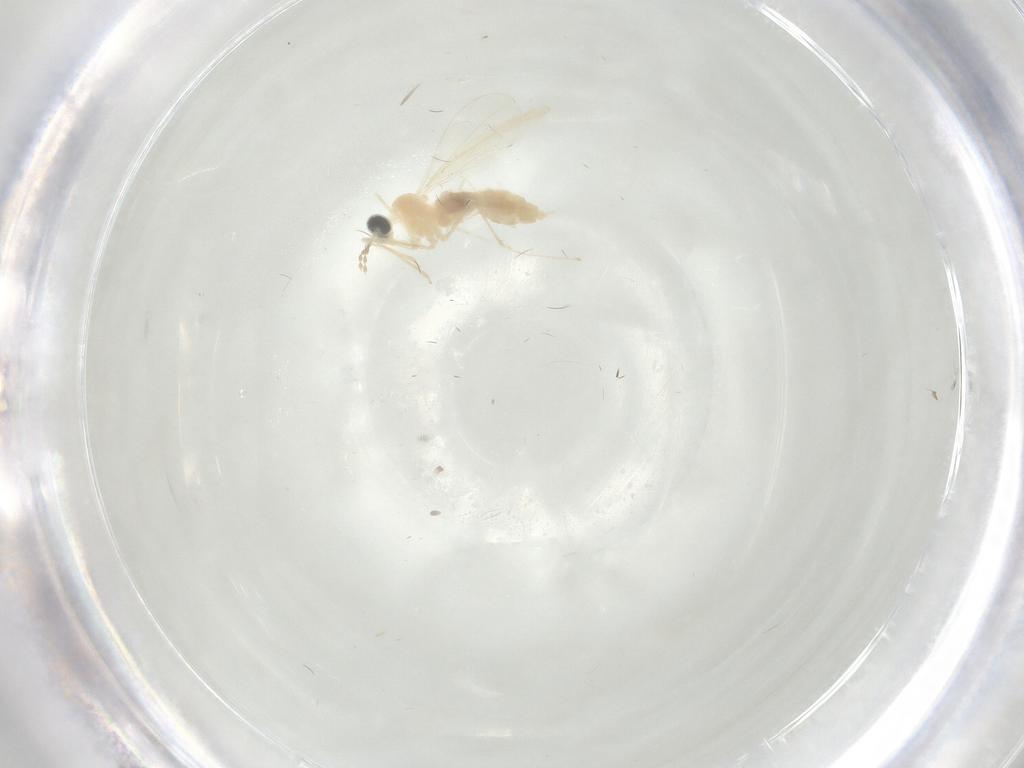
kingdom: Animalia
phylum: Arthropoda
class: Insecta
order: Diptera
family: Cecidomyiidae
